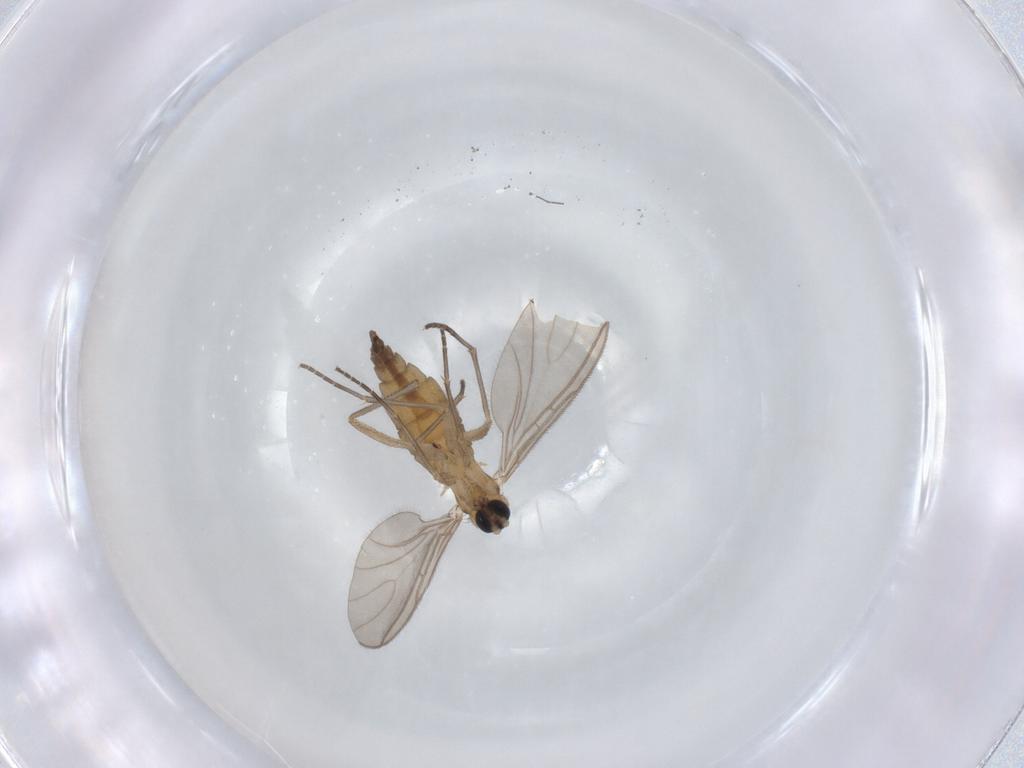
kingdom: Animalia
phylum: Arthropoda
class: Insecta
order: Diptera
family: Sciaridae
